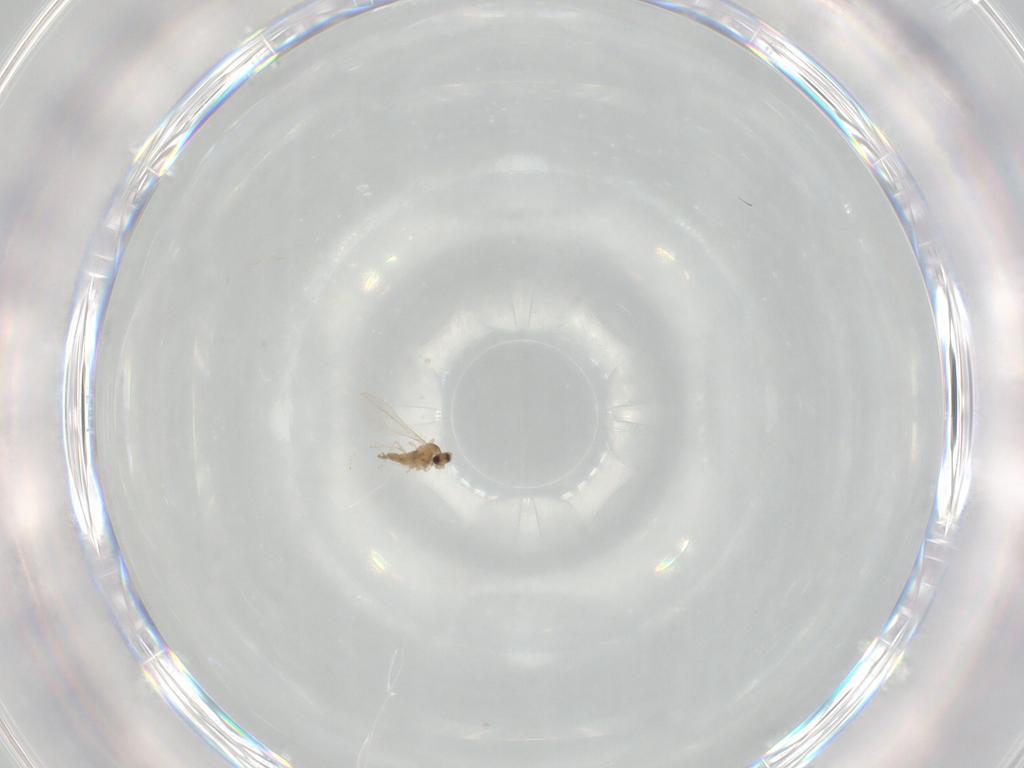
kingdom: Animalia
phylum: Arthropoda
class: Insecta
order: Diptera
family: Cecidomyiidae
